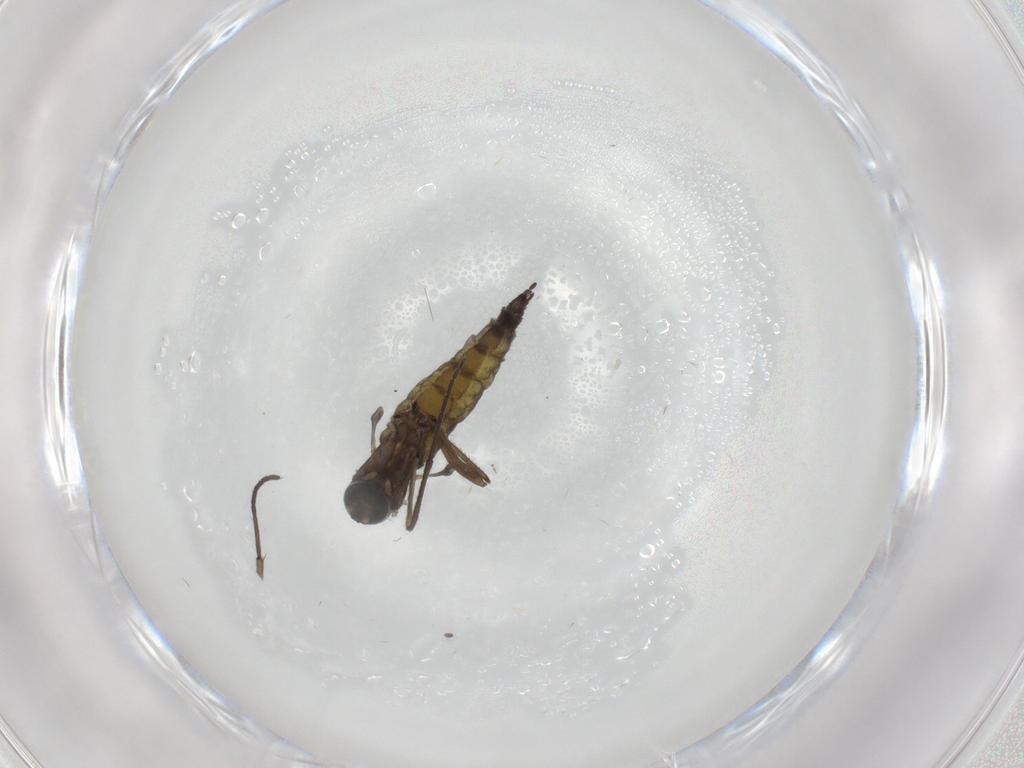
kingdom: Animalia
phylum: Arthropoda
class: Insecta
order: Diptera
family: Sciaridae
